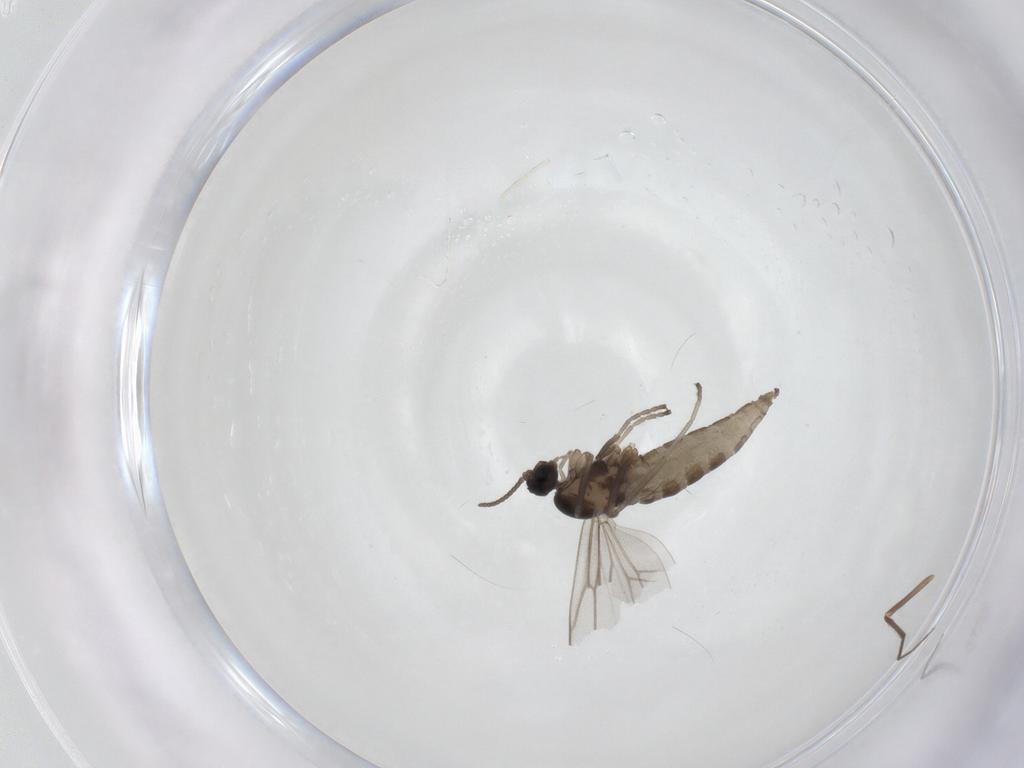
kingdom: Animalia
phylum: Arthropoda
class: Insecta
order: Diptera
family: Cecidomyiidae
